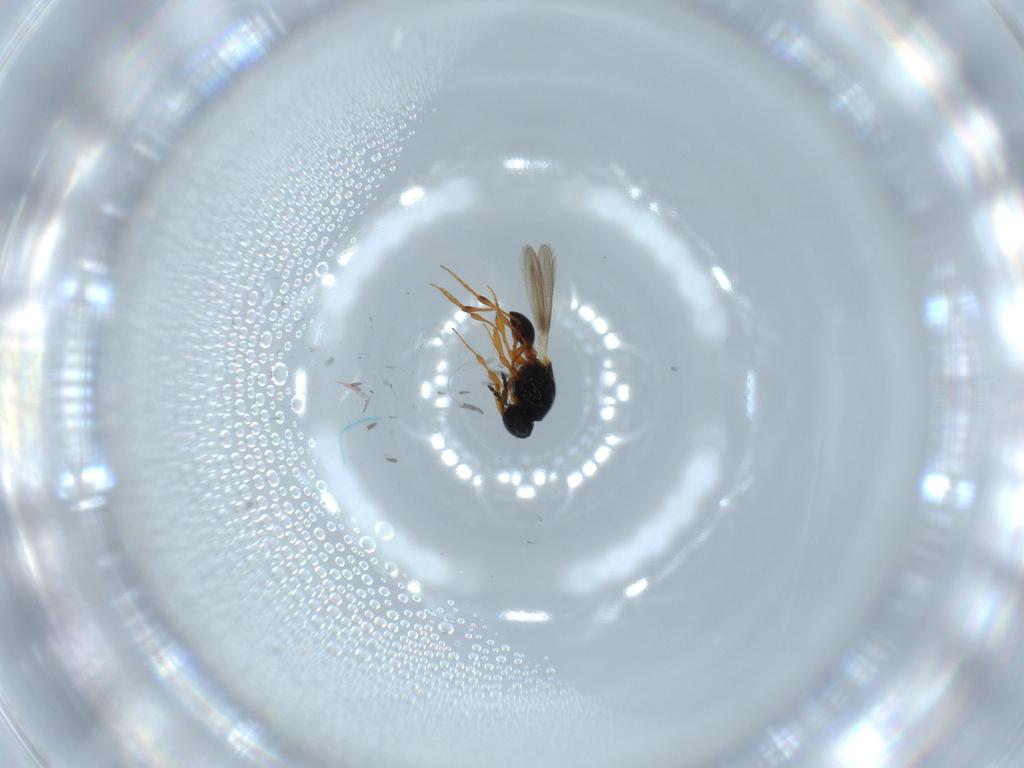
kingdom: Animalia
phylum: Arthropoda
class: Insecta
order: Hymenoptera
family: Platygastridae
